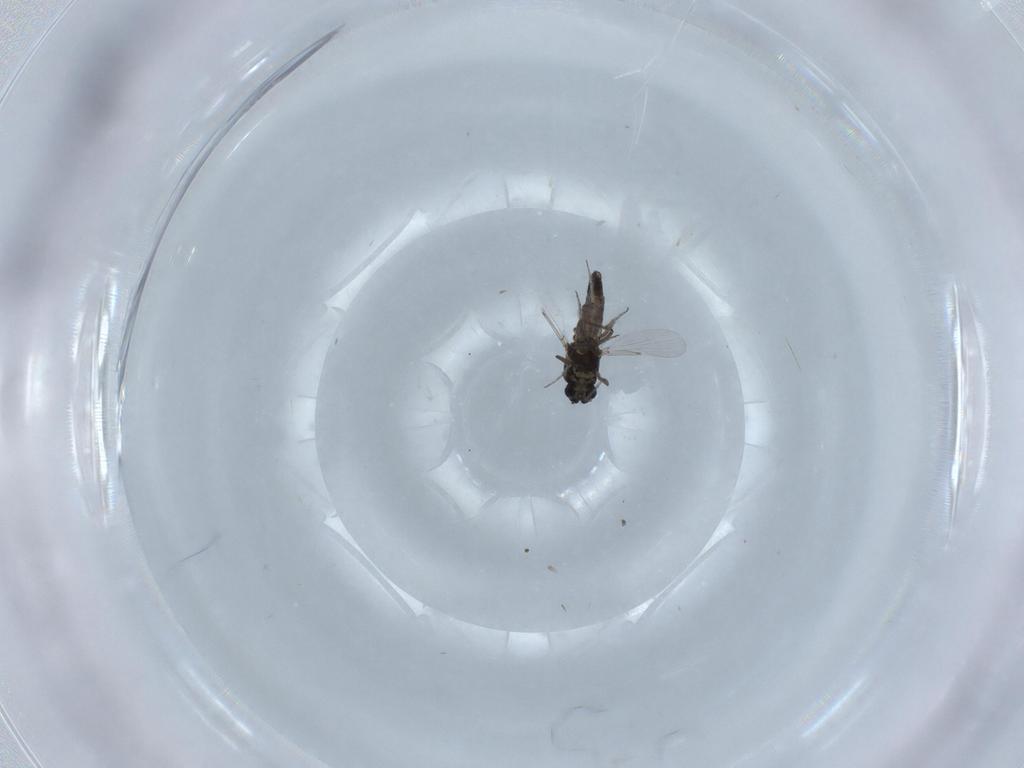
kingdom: Animalia
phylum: Arthropoda
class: Insecta
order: Diptera
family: Ceratopogonidae
